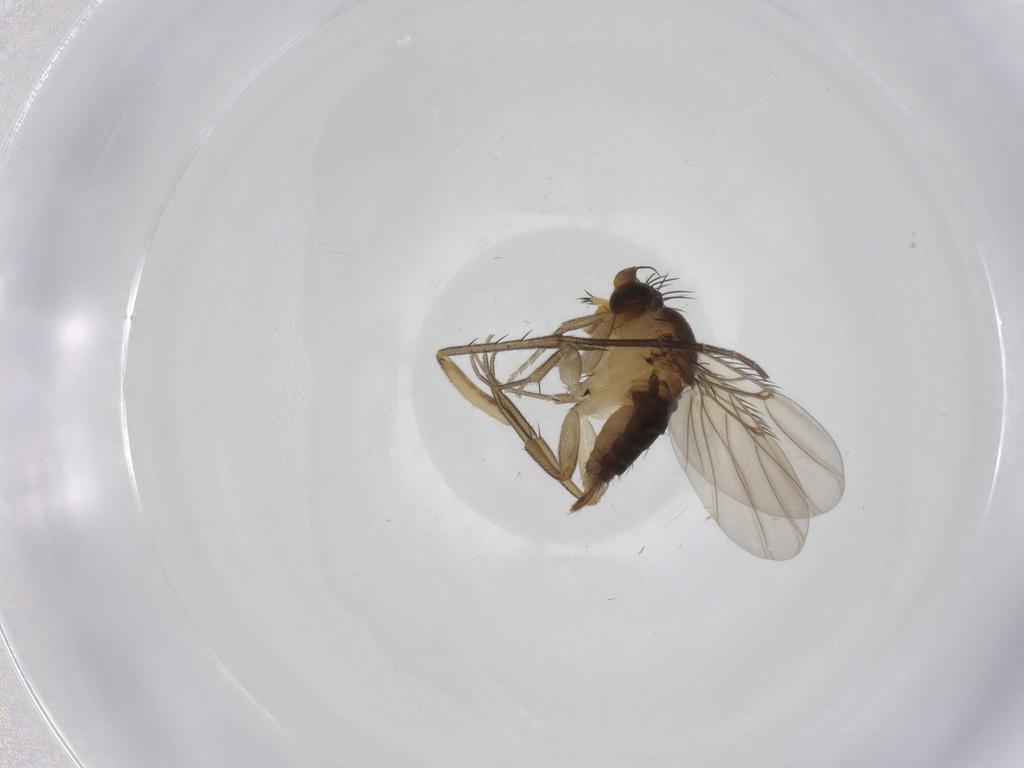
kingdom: Animalia
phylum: Arthropoda
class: Insecta
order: Diptera
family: Mycetophilidae
